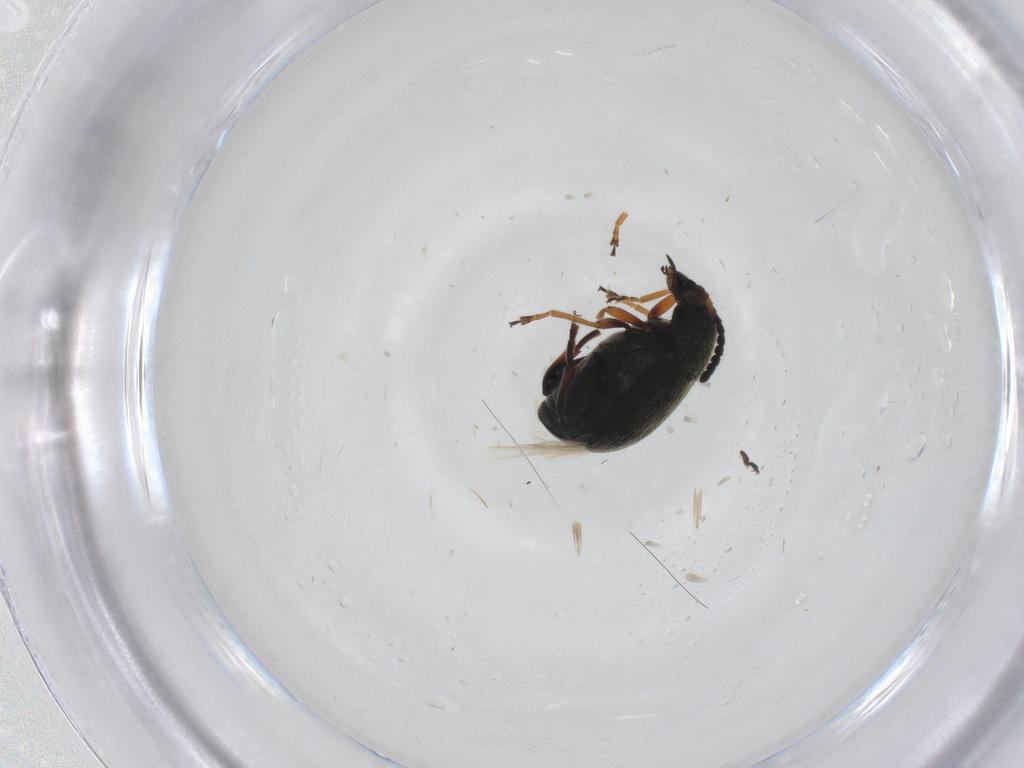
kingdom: Animalia
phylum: Arthropoda
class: Insecta
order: Coleoptera
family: Chrysomelidae
